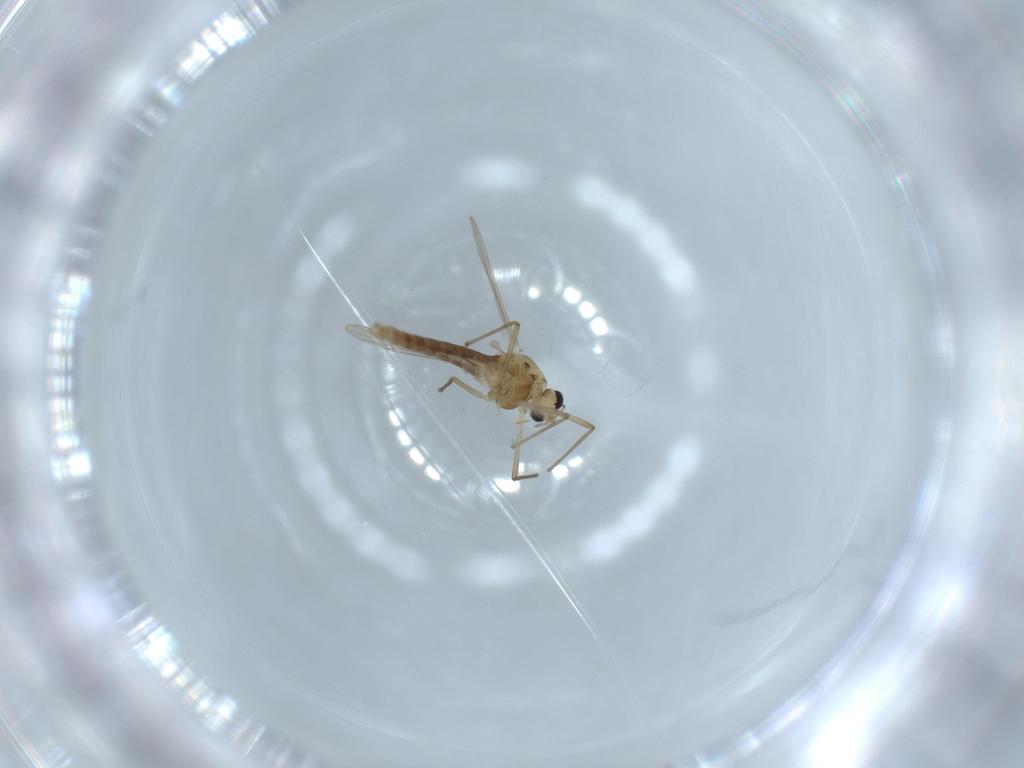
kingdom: Animalia
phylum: Arthropoda
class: Insecta
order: Diptera
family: Chironomidae
